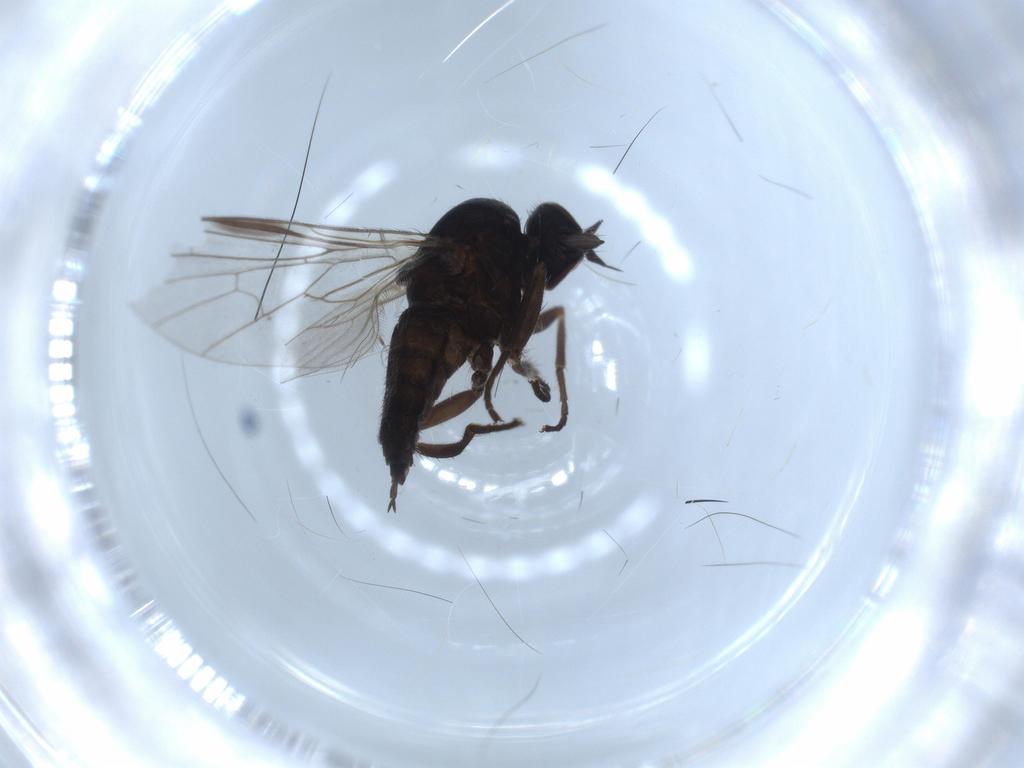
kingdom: Animalia
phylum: Arthropoda
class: Insecta
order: Diptera
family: Empididae
